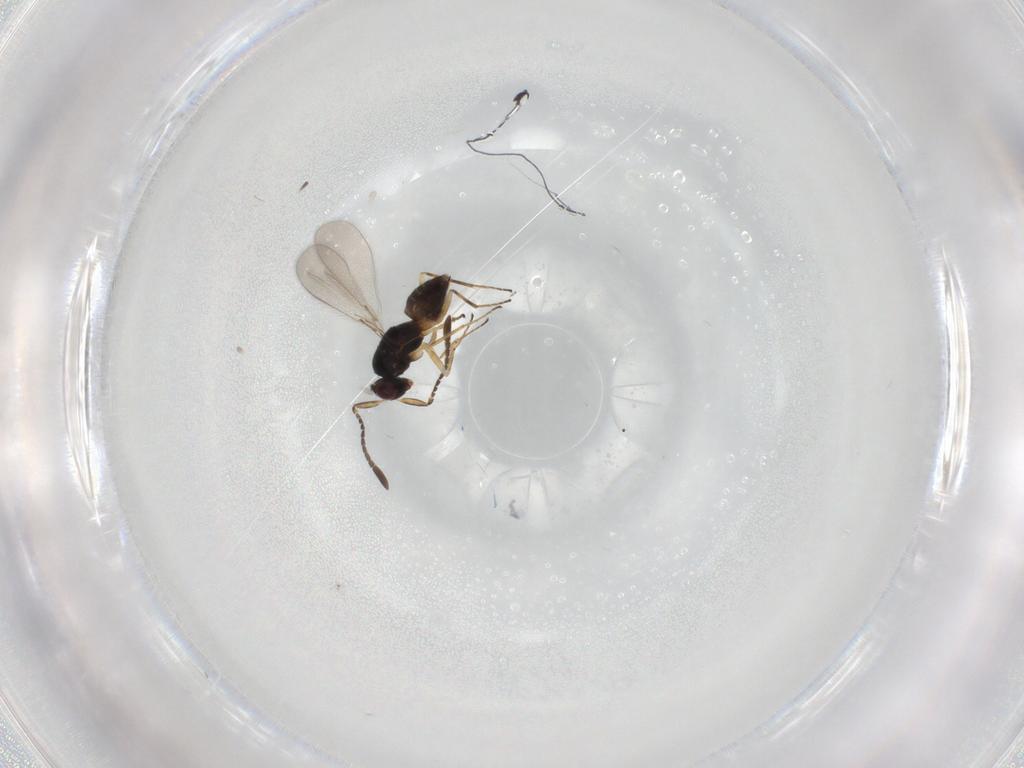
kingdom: Animalia
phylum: Arthropoda
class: Insecta
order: Hymenoptera
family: Mymaridae
